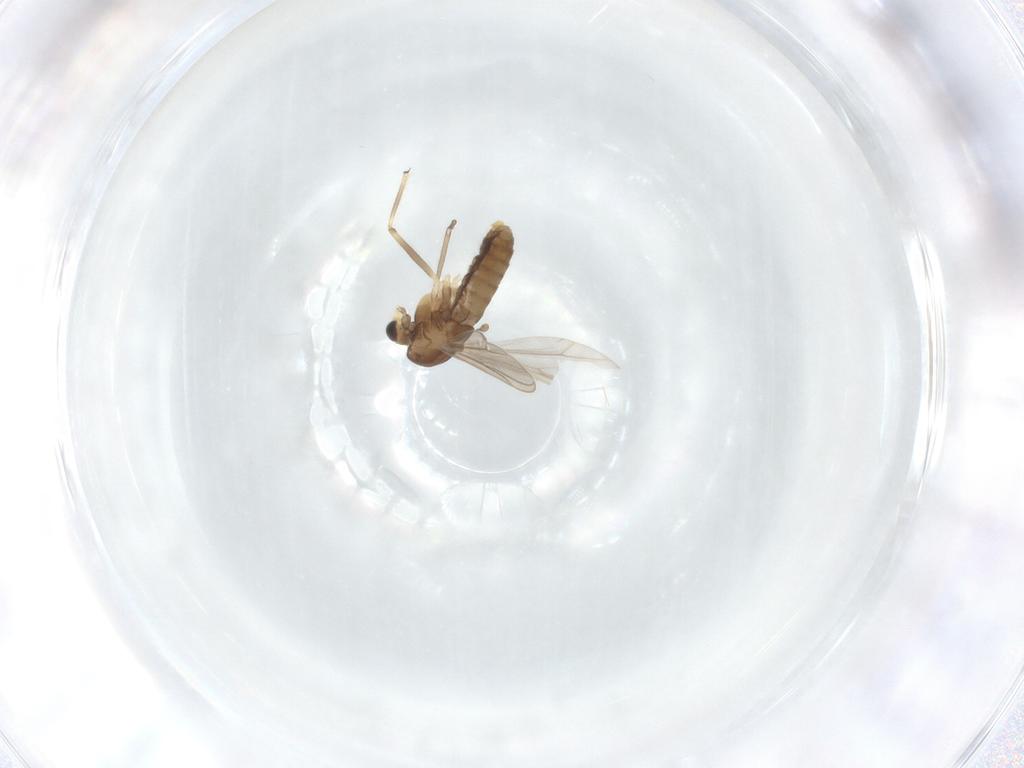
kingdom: Animalia
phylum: Arthropoda
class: Insecta
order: Diptera
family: Chironomidae
